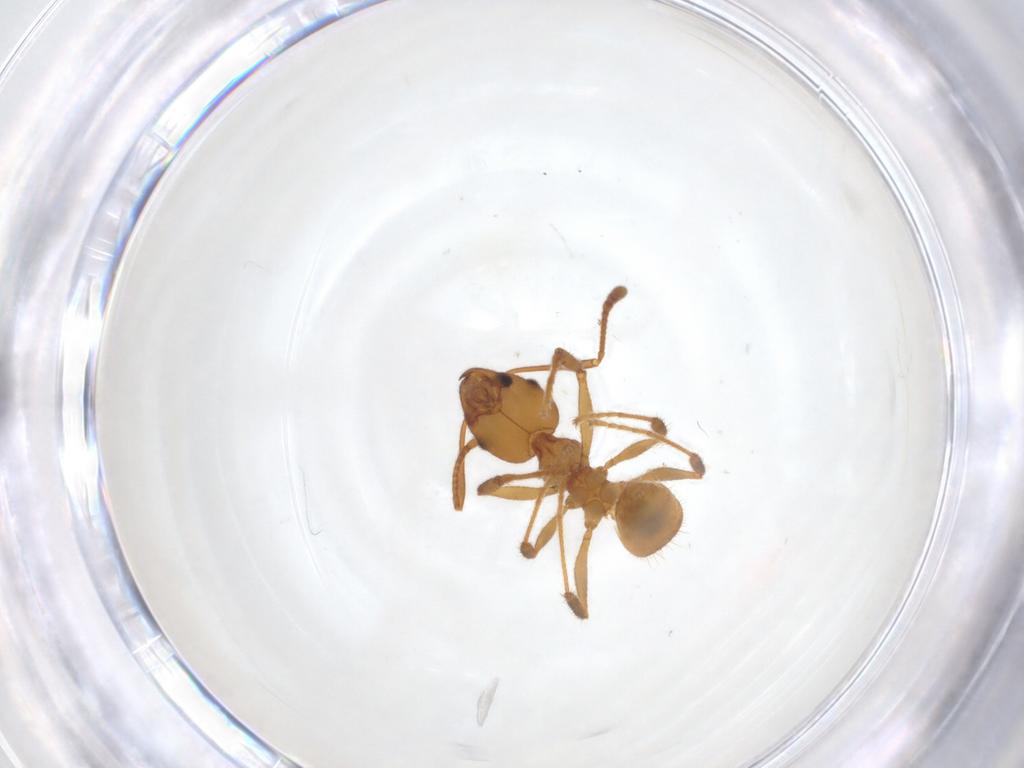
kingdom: Animalia
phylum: Arthropoda
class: Insecta
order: Hymenoptera
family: Formicidae
